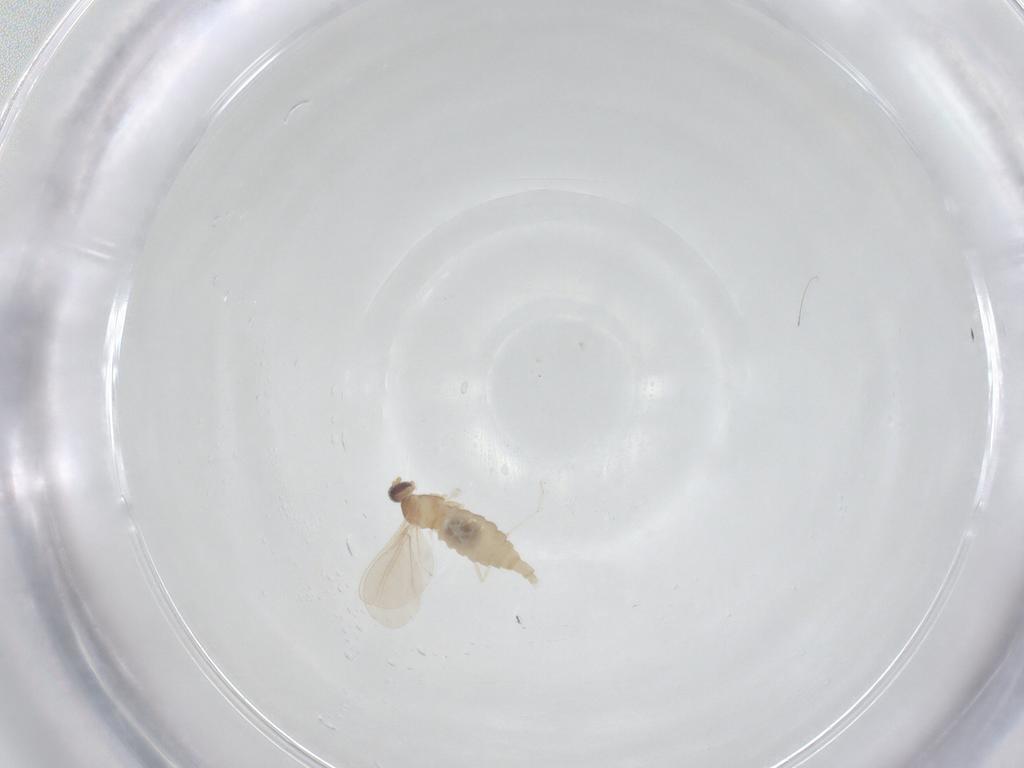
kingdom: Animalia
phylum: Arthropoda
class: Insecta
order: Diptera
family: Cecidomyiidae
